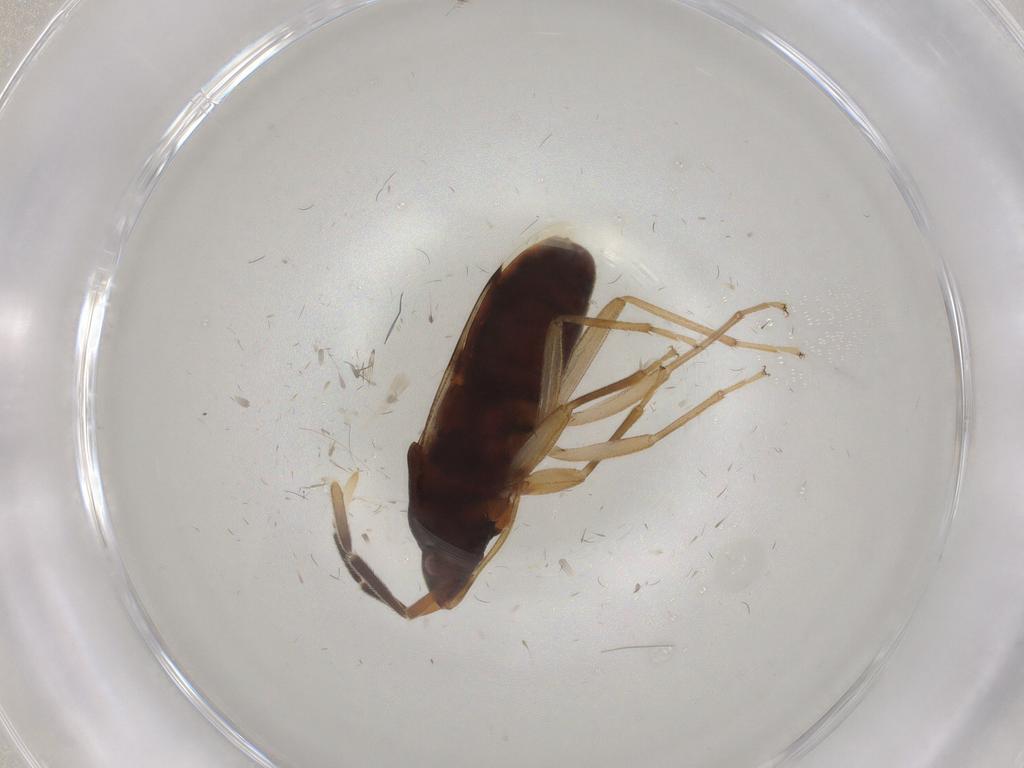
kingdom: Animalia
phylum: Arthropoda
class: Insecta
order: Hemiptera
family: Rhyparochromidae
